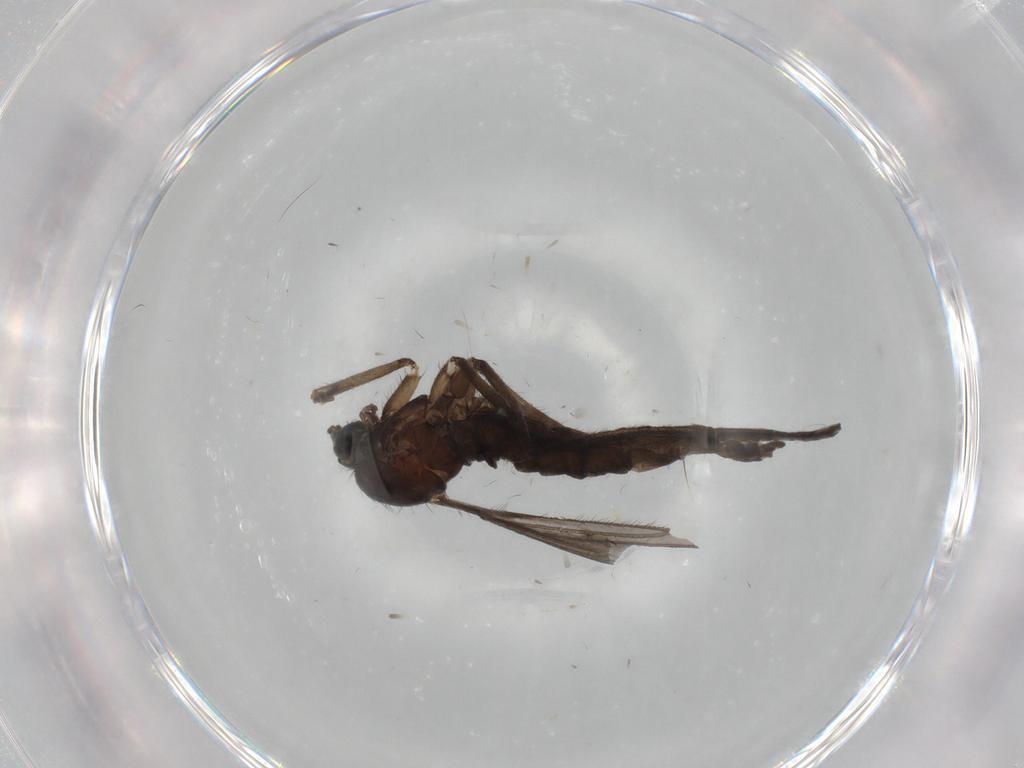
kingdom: Animalia
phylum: Arthropoda
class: Insecta
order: Diptera
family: Sciaridae
